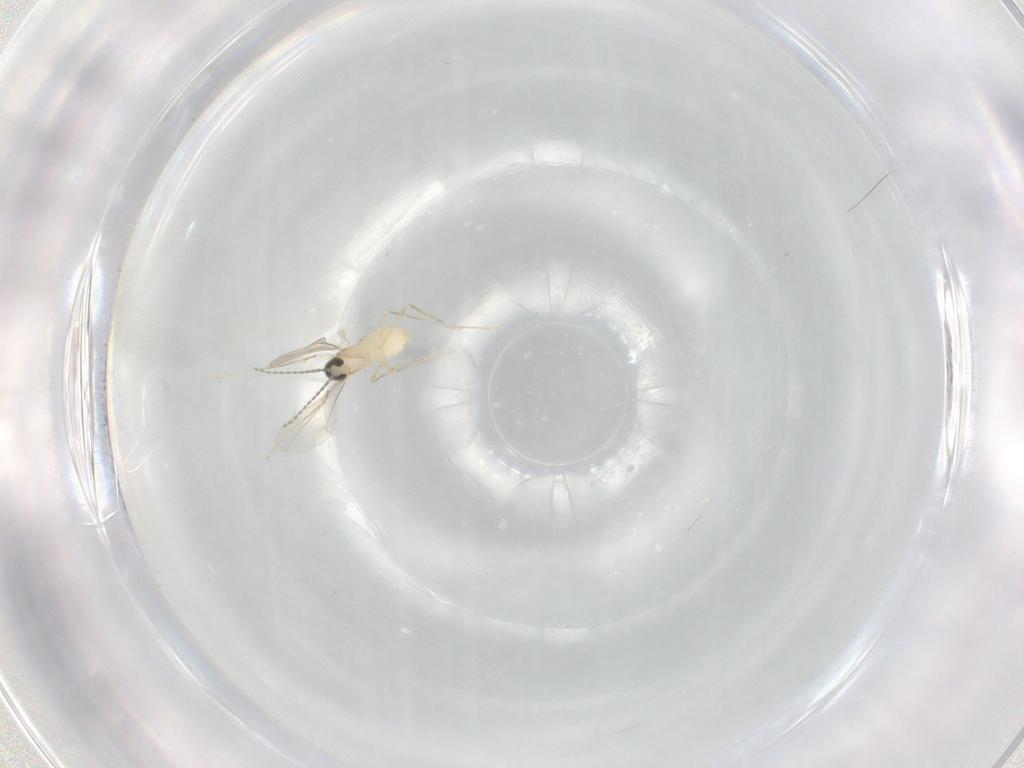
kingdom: Animalia
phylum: Arthropoda
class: Insecta
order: Diptera
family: Cecidomyiidae
